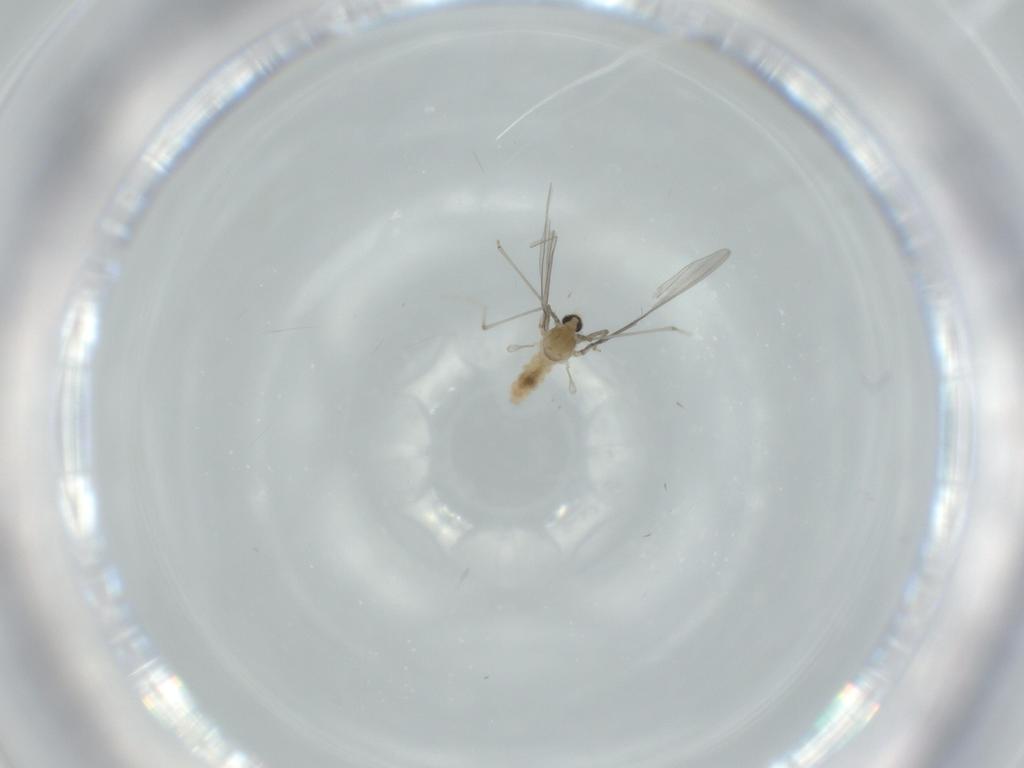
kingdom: Animalia
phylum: Arthropoda
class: Insecta
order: Diptera
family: Cecidomyiidae
